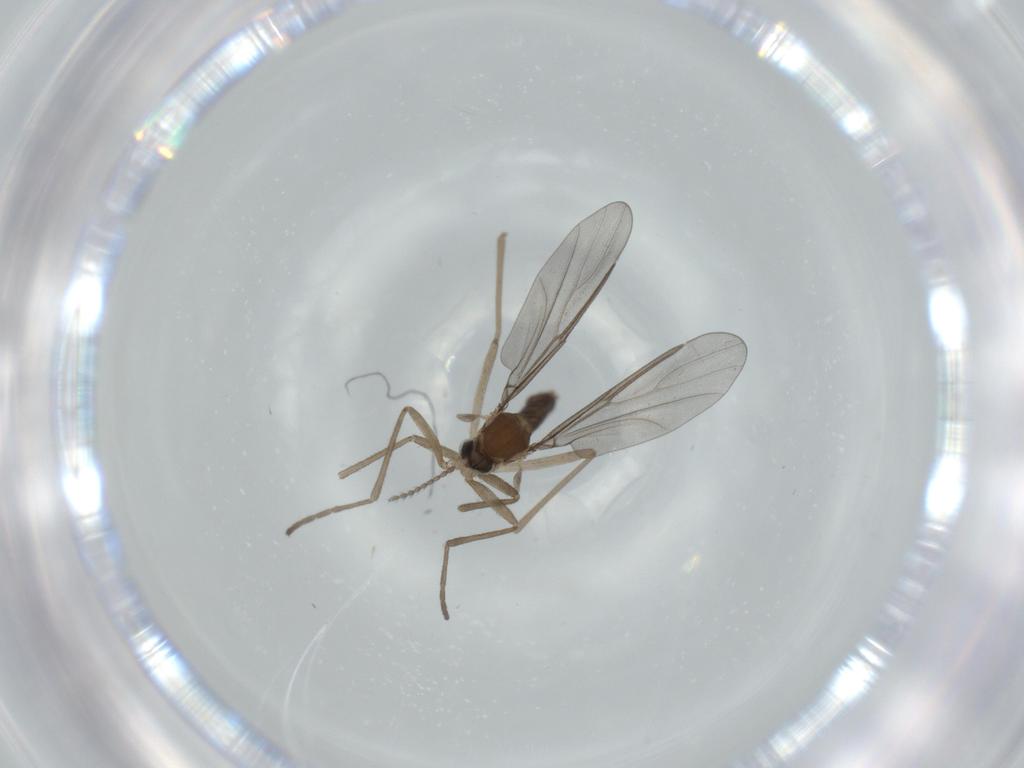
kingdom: Animalia
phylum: Arthropoda
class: Insecta
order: Diptera
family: Cecidomyiidae
